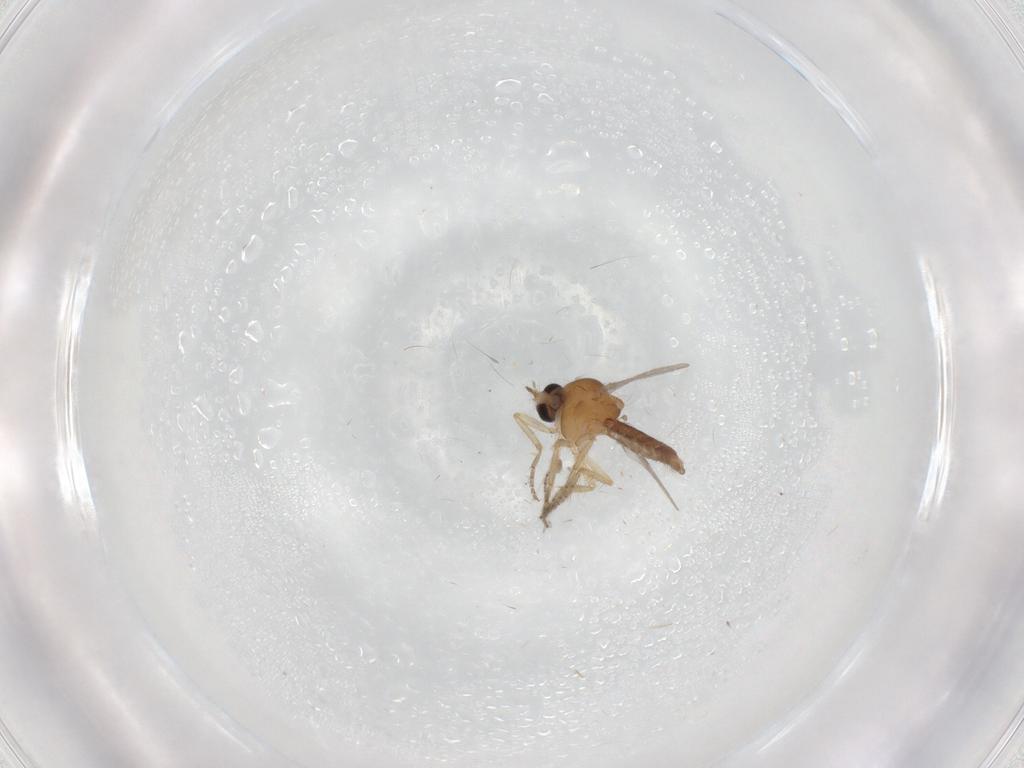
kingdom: Animalia
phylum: Arthropoda
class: Insecta
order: Diptera
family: Ceratopogonidae
